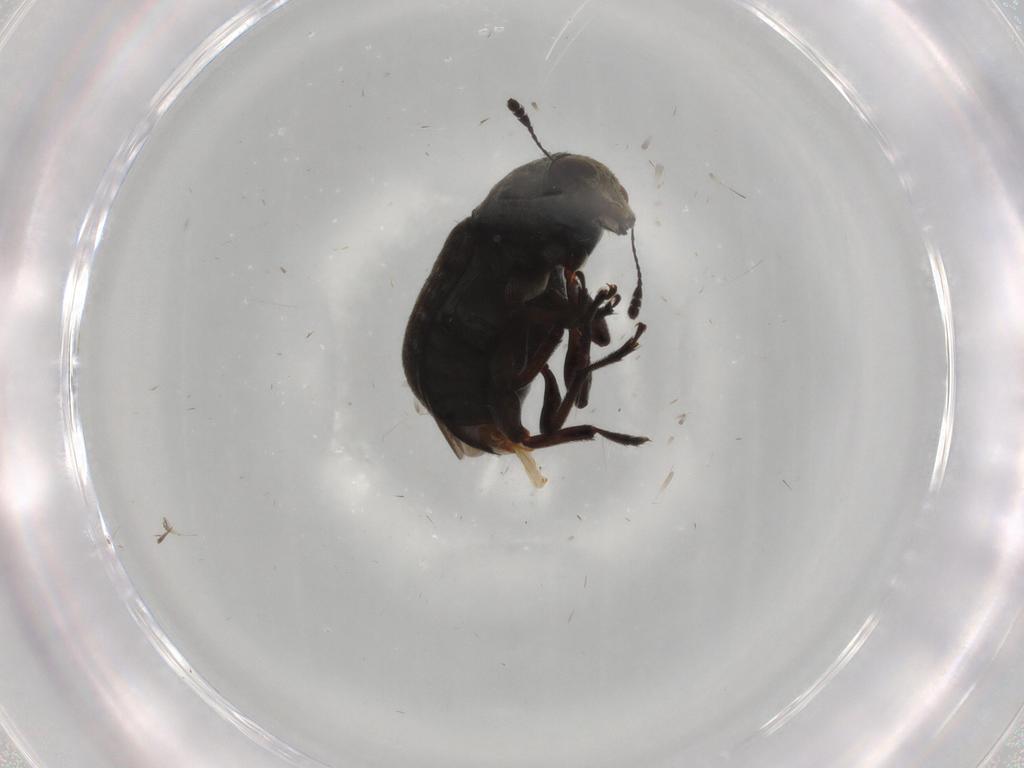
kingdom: Animalia
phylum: Arthropoda
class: Insecta
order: Coleoptera
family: Anthribidae
